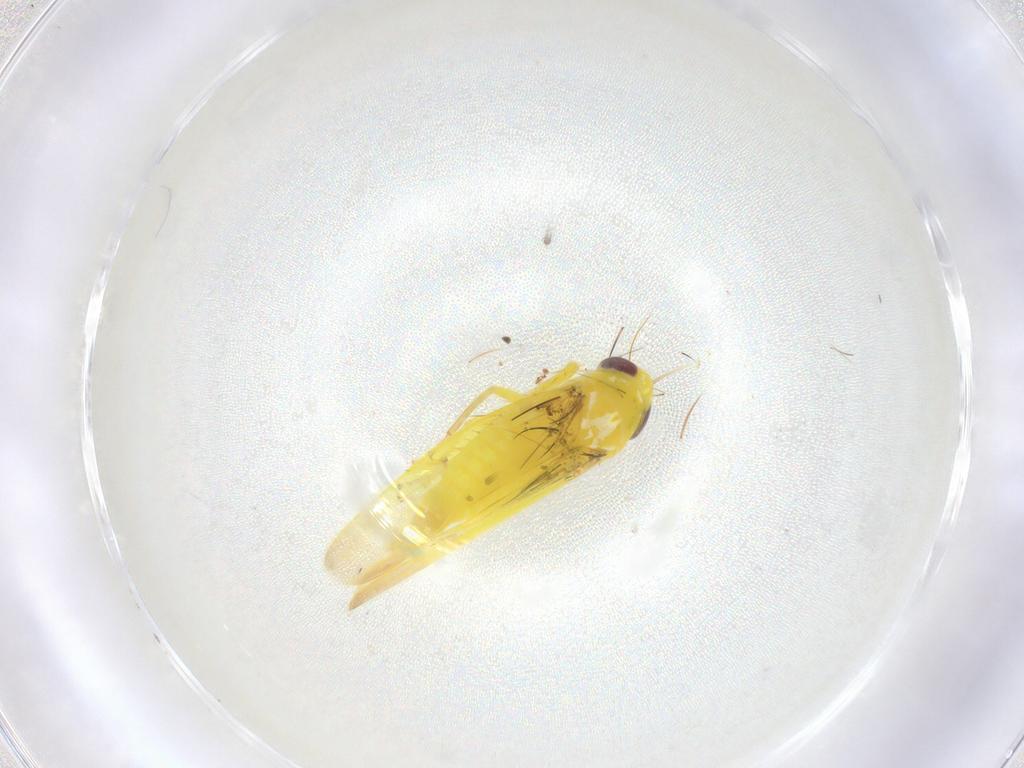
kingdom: Animalia
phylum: Arthropoda
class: Insecta
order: Hemiptera
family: Cicadellidae
